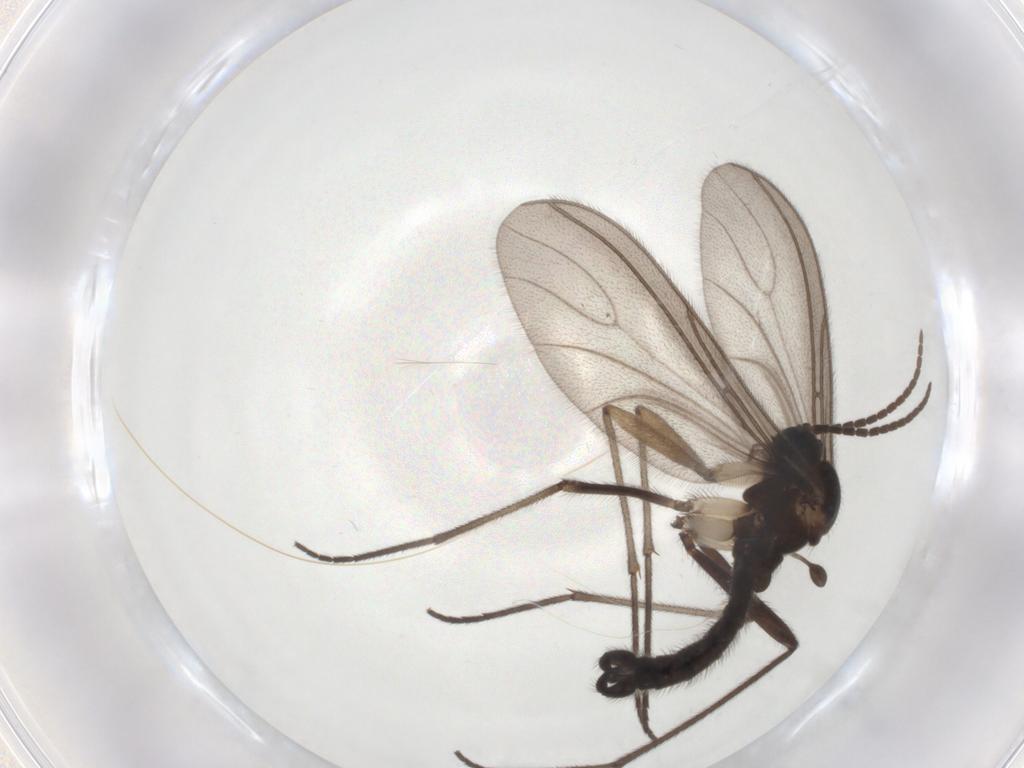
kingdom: Animalia
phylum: Arthropoda
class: Insecta
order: Diptera
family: Sciaridae
